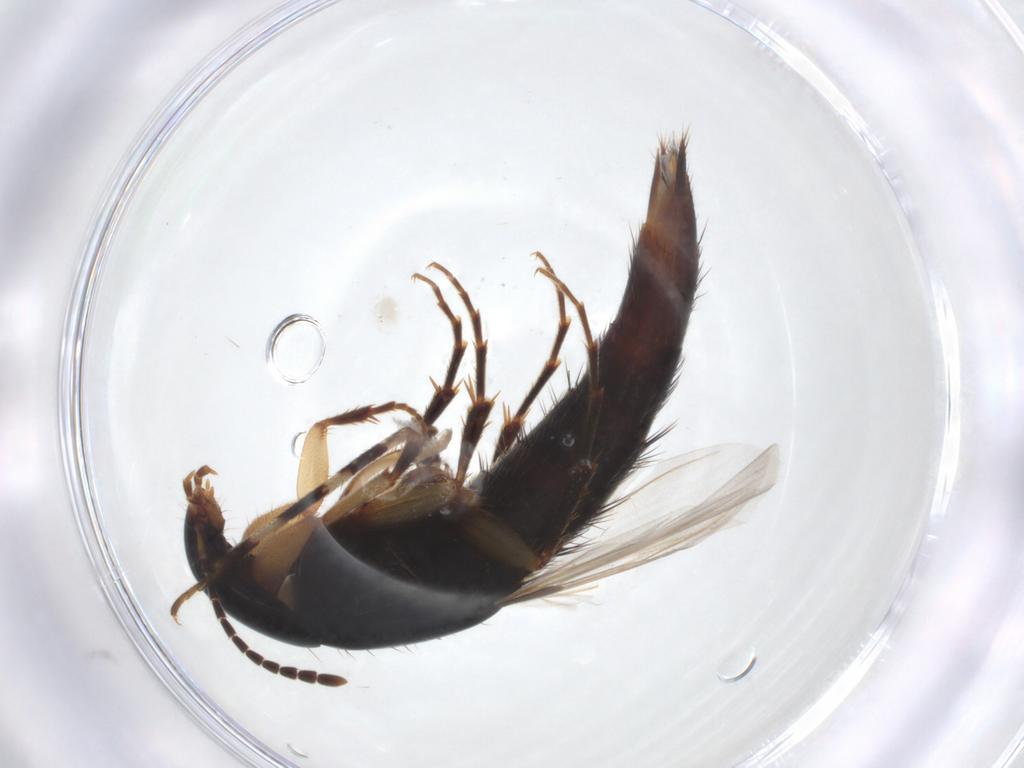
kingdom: Animalia
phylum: Arthropoda
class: Insecta
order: Coleoptera
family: Staphylinidae
